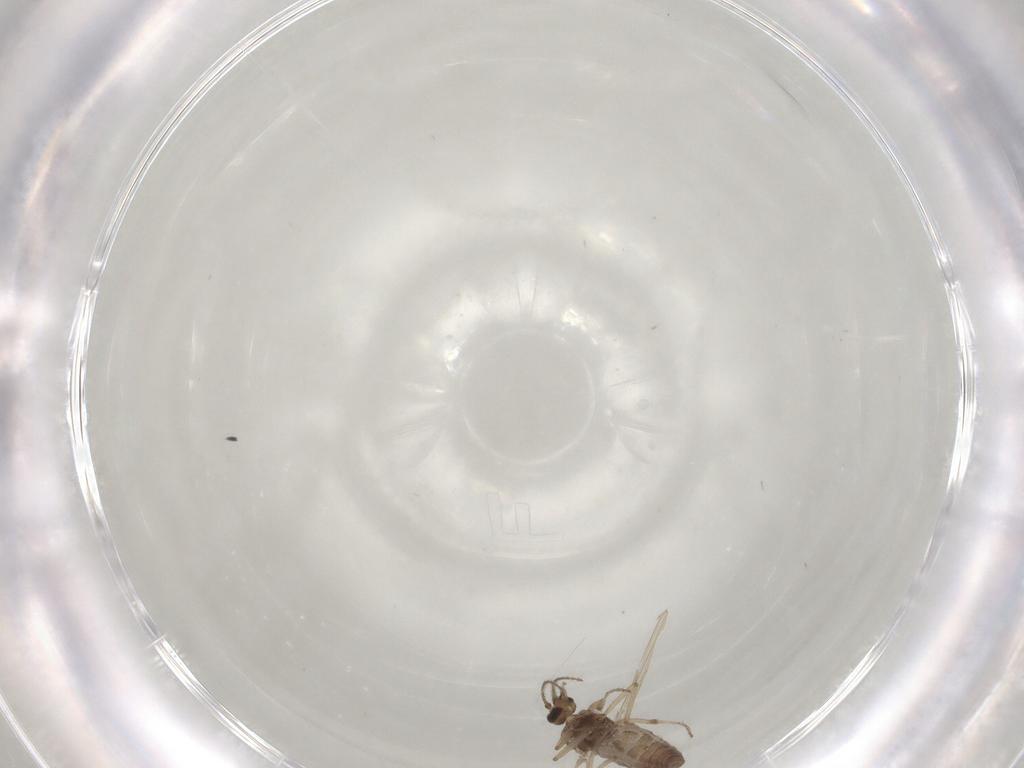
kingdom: Animalia
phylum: Arthropoda
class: Insecta
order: Diptera
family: Ceratopogonidae
